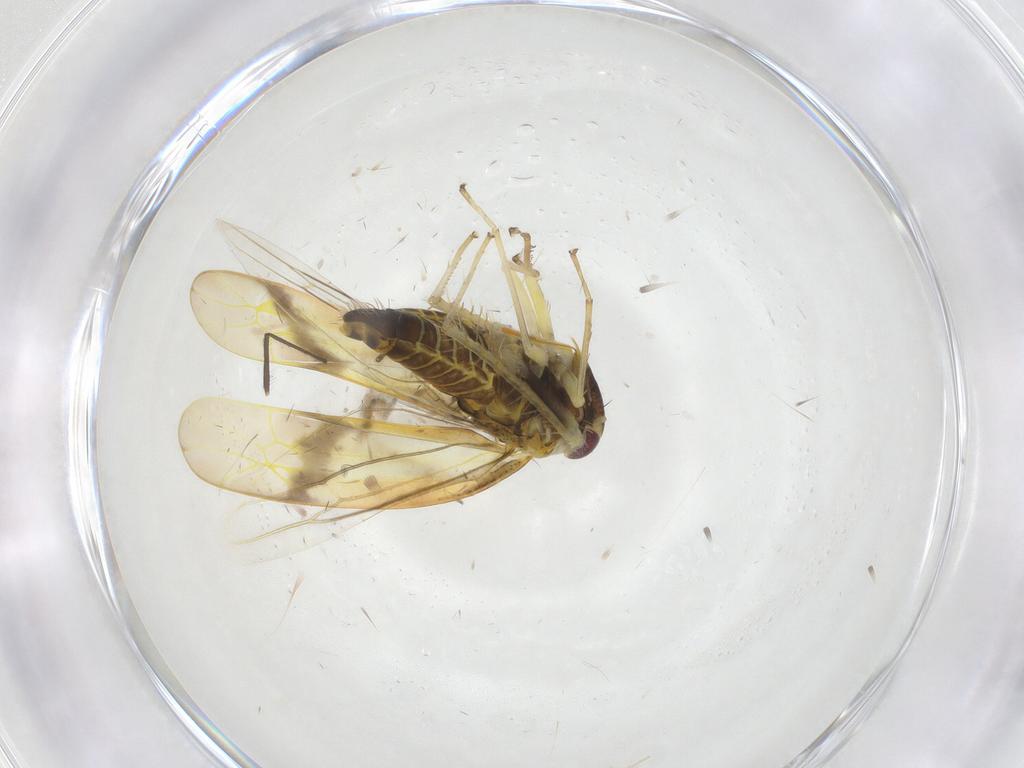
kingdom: Animalia
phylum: Arthropoda
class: Insecta
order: Hemiptera
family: Cicadellidae
